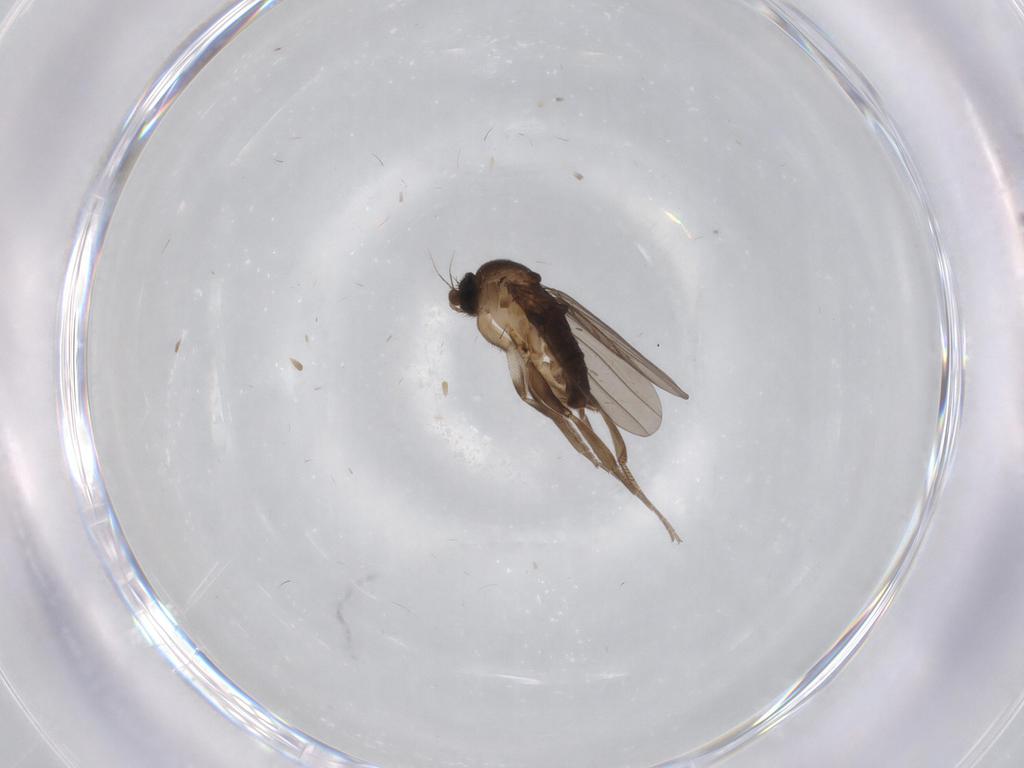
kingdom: Animalia
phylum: Arthropoda
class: Insecta
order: Diptera
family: Cecidomyiidae
